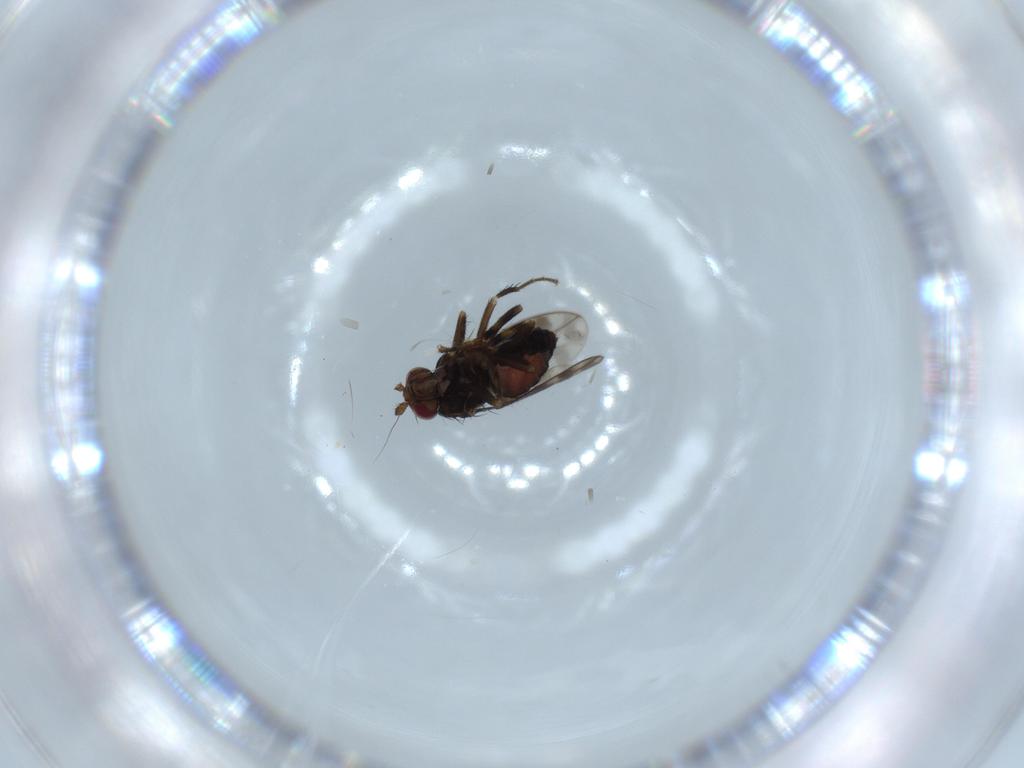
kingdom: Animalia
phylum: Arthropoda
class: Insecta
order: Diptera
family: Sphaeroceridae
